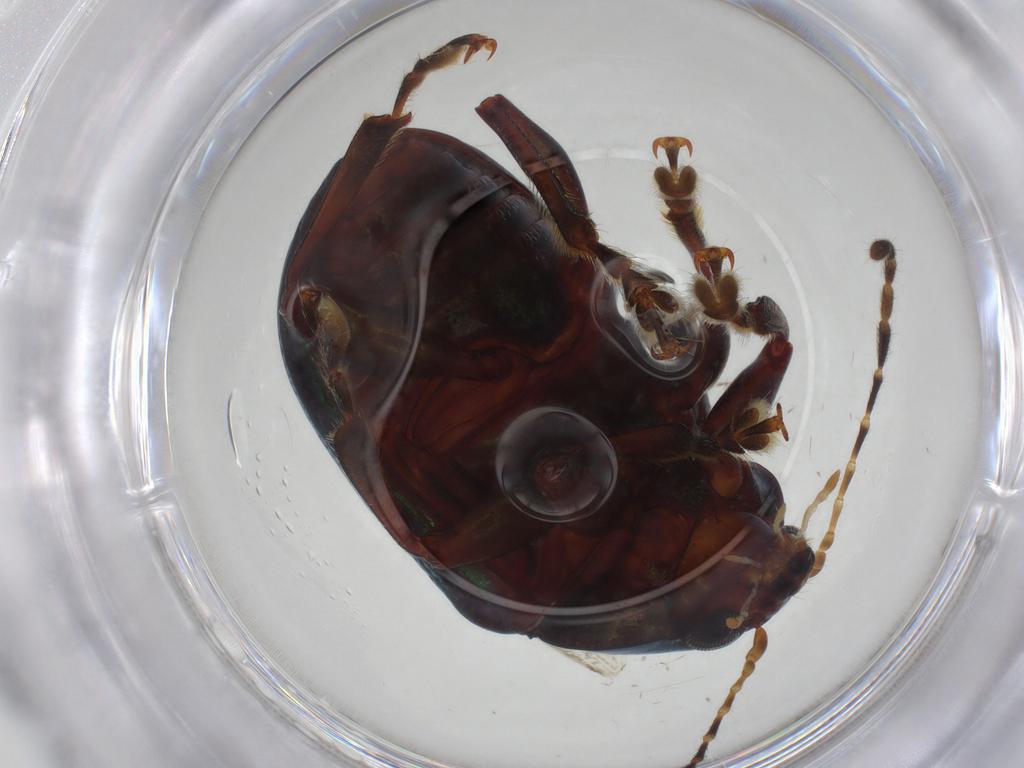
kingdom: Animalia
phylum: Arthropoda
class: Insecta
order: Coleoptera
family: Chrysomelidae
